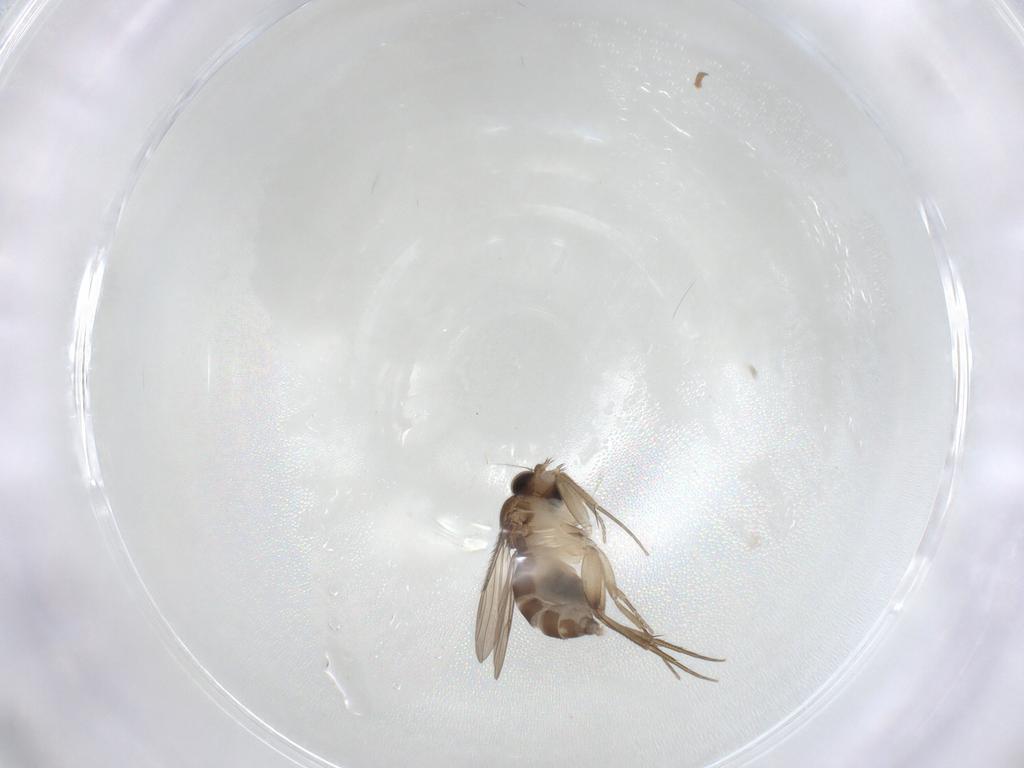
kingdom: Animalia
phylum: Arthropoda
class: Insecta
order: Diptera
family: Phoridae
